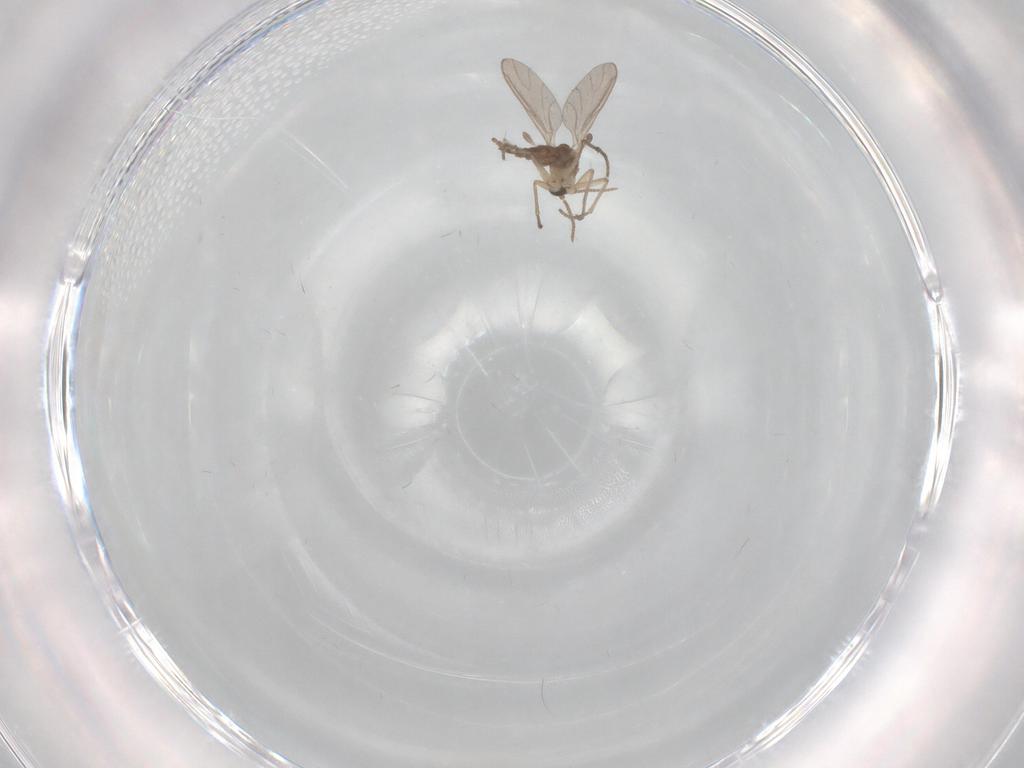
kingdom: Animalia
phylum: Arthropoda
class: Insecta
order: Diptera
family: Sciaridae
